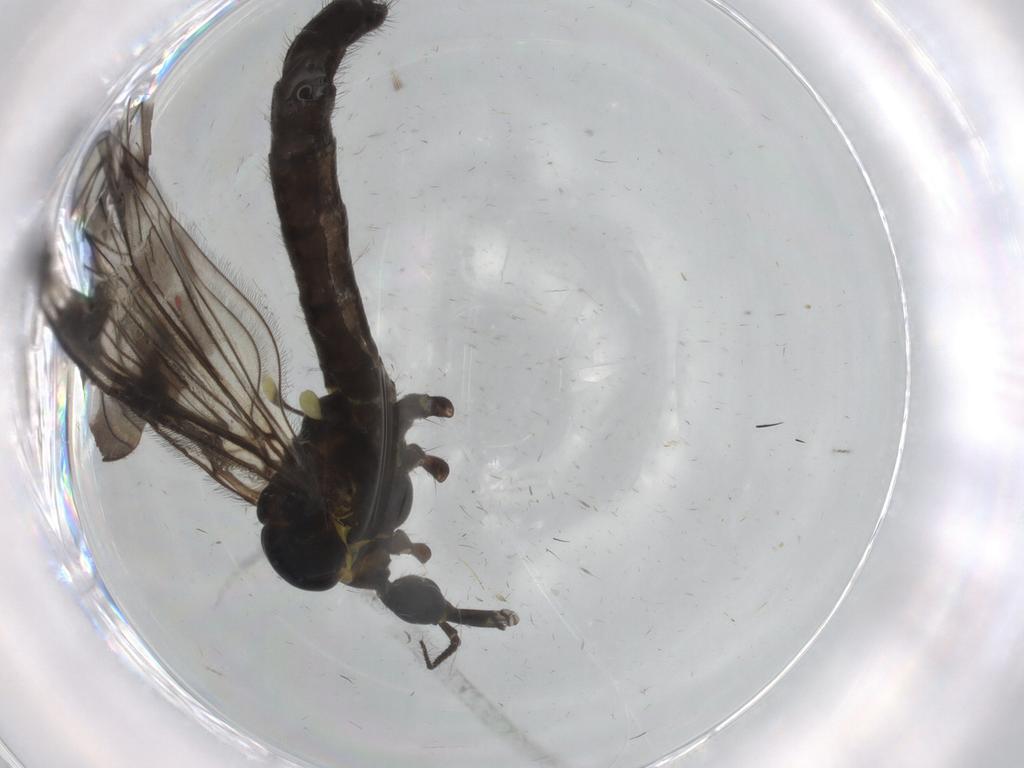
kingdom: Animalia
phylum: Arthropoda
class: Insecta
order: Diptera
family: Limoniidae
